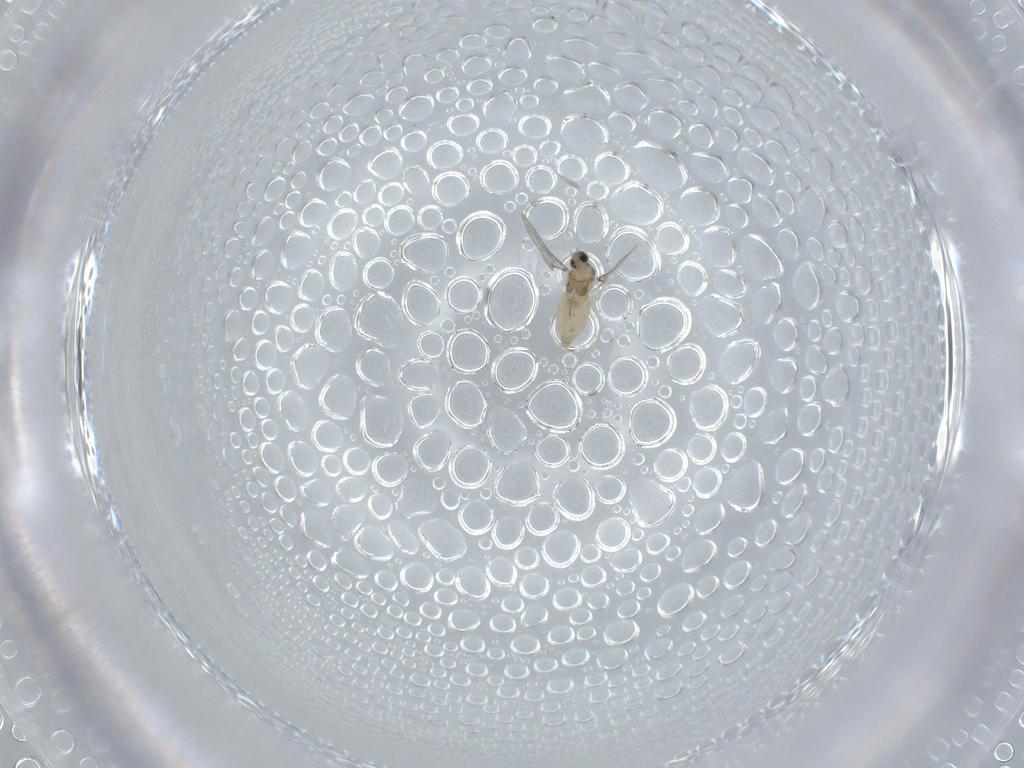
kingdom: Animalia
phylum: Arthropoda
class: Insecta
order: Diptera
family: Cecidomyiidae
